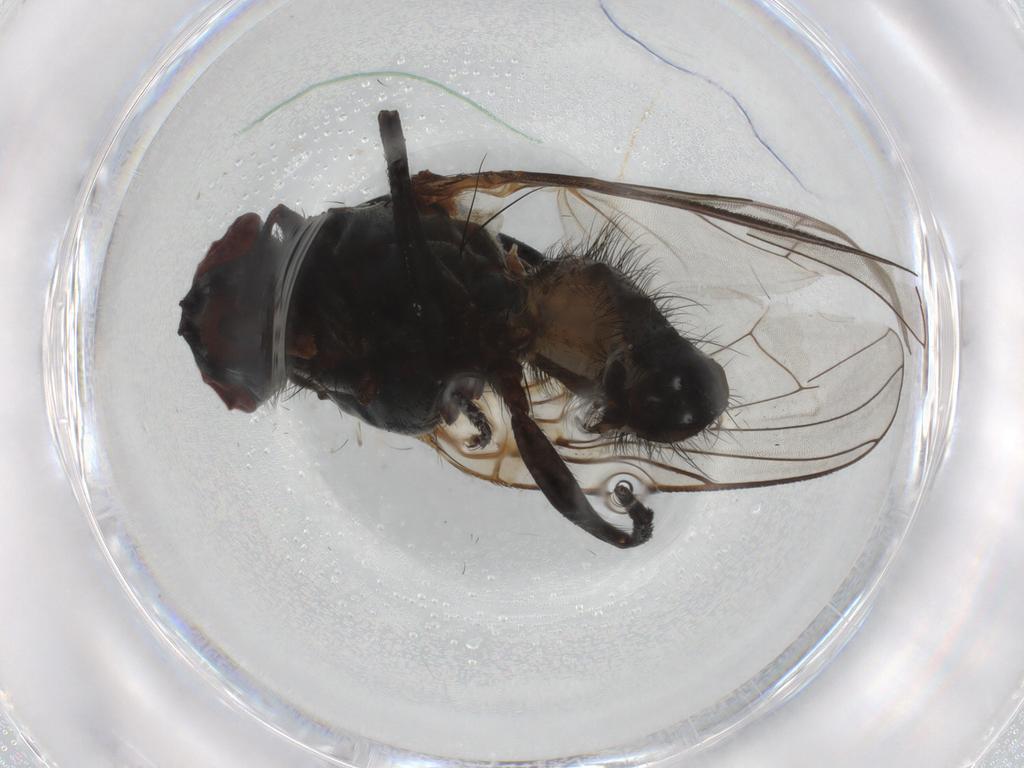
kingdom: Animalia
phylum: Arthropoda
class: Insecta
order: Diptera
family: Anthomyiidae
